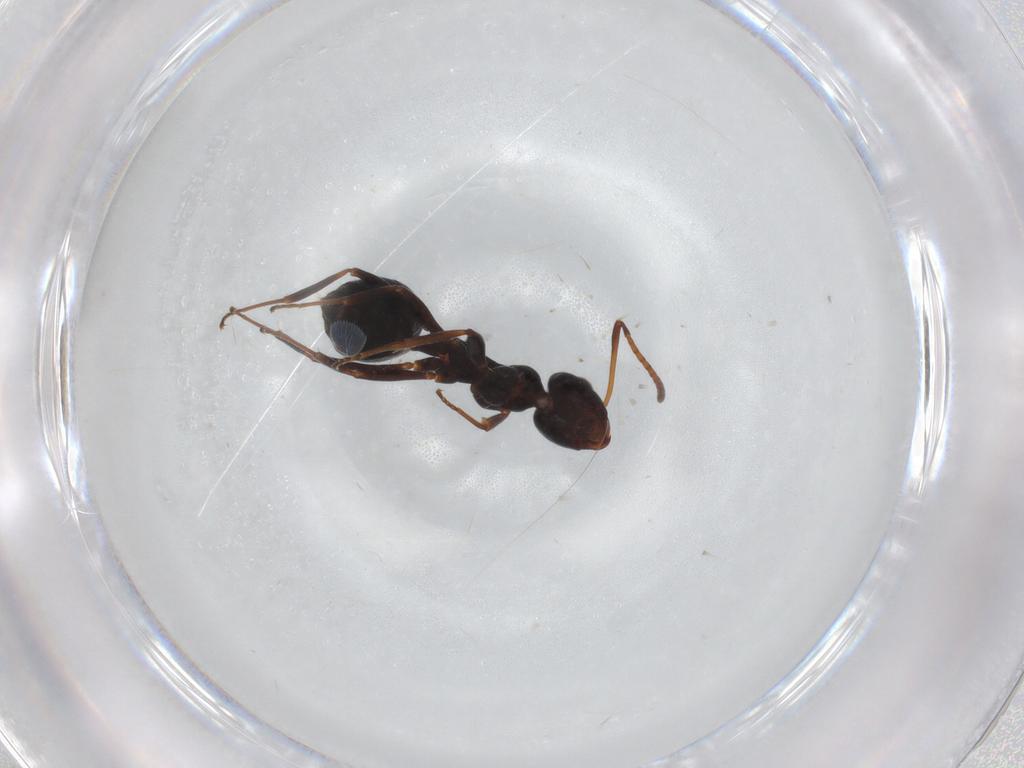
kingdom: Animalia
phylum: Arthropoda
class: Insecta
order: Hymenoptera
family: Formicidae
